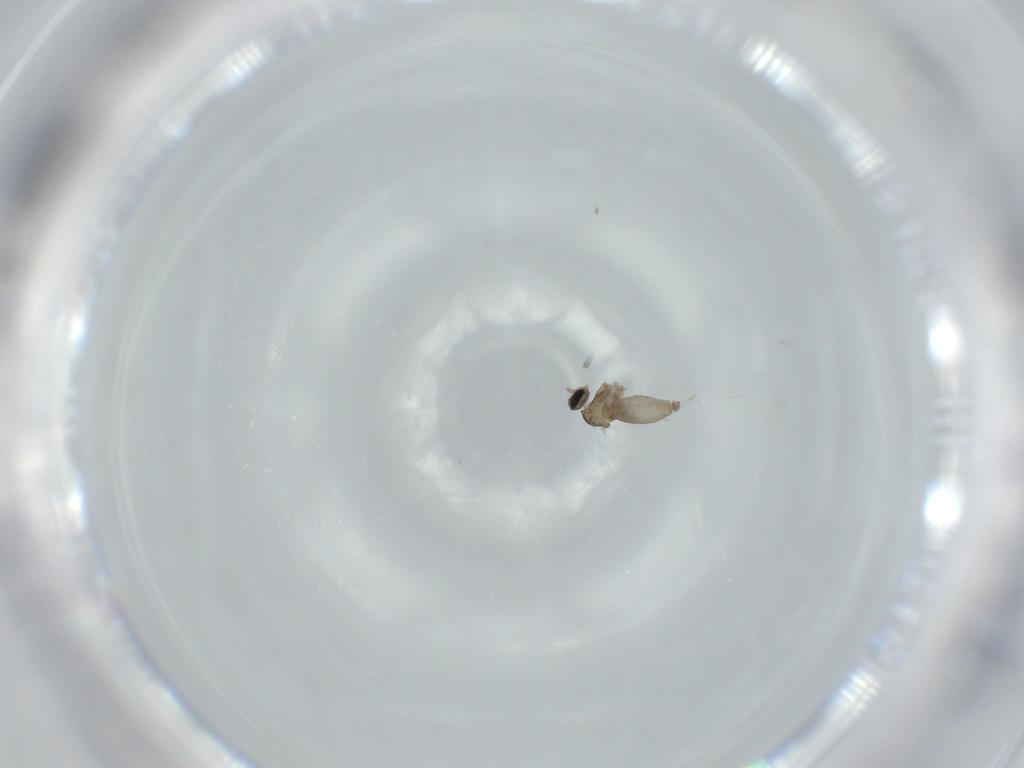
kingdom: Animalia
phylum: Arthropoda
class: Insecta
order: Diptera
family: Cecidomyiidae
